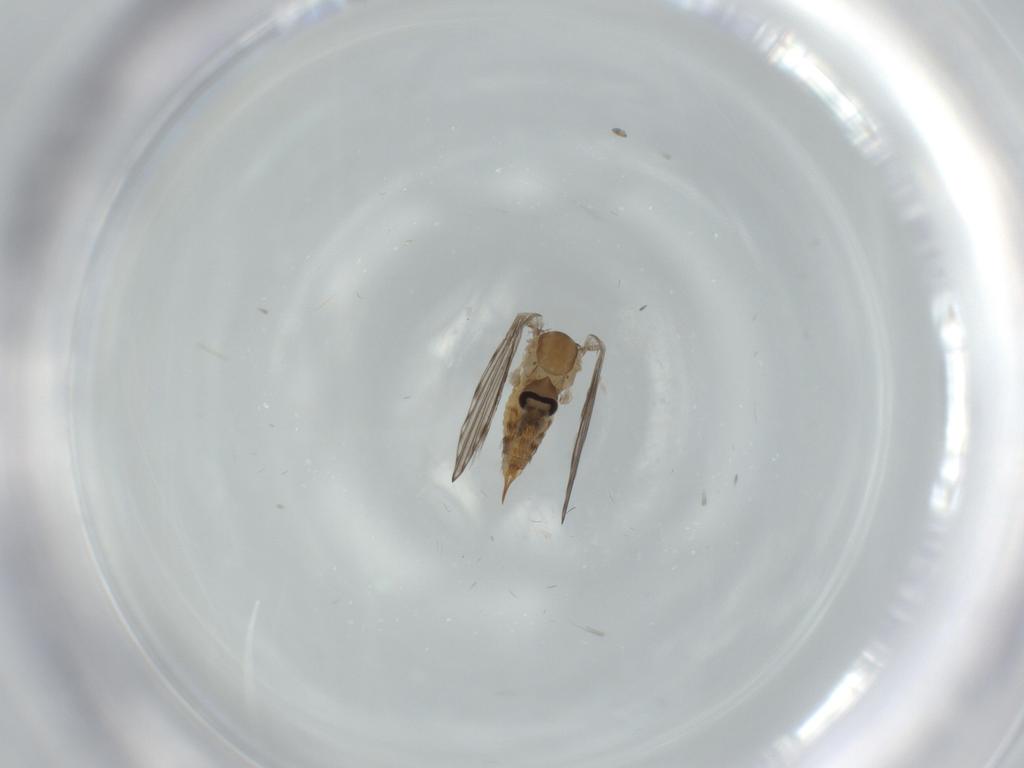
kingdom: Animalia
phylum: Arthropoda
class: Insecta
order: Diptera
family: Psychodidae
